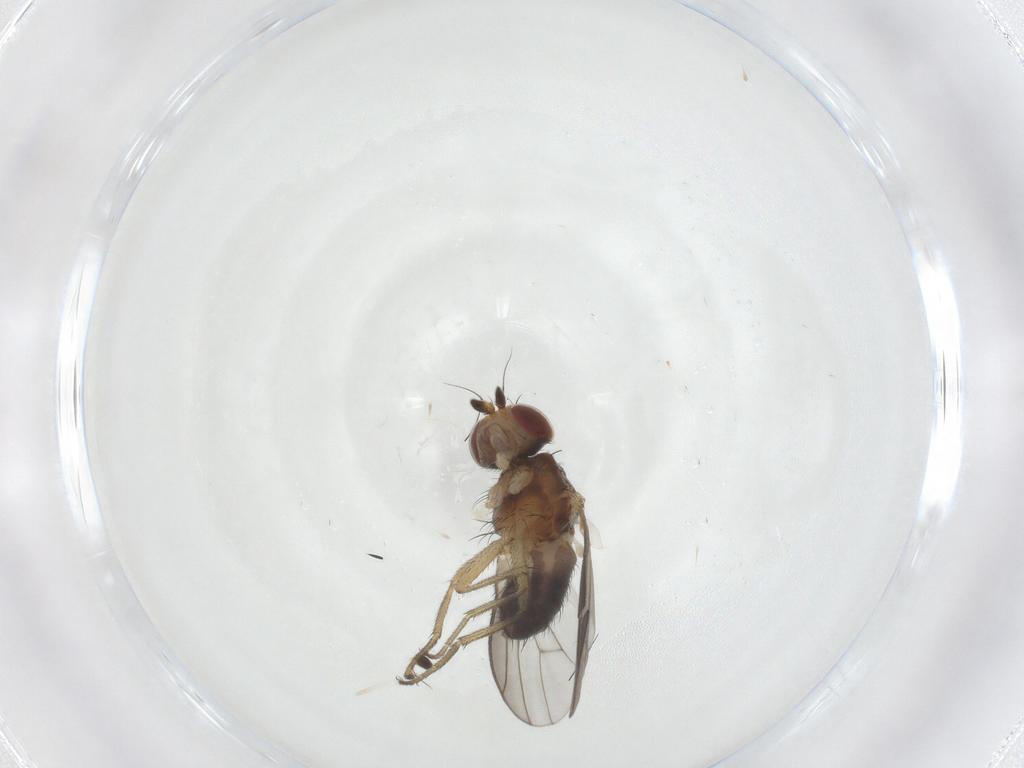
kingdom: Animalia
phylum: Arthropoda
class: Insecta
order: Diptera
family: Heleomyzidae
